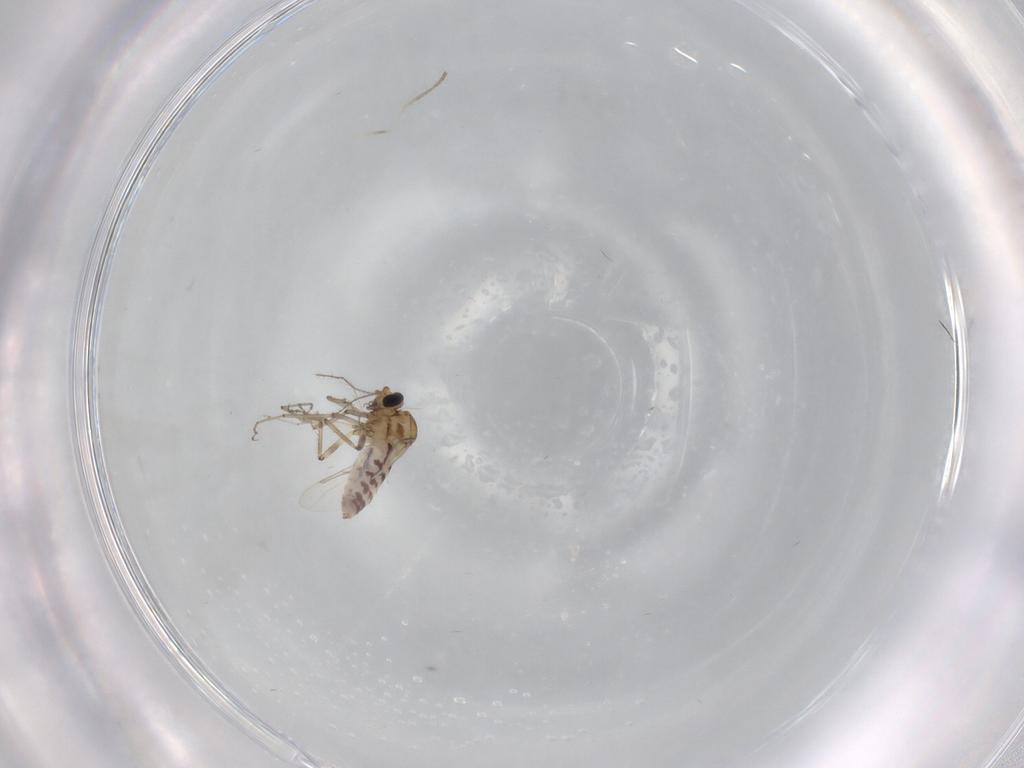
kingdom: Animalia
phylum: Arthropoda
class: Insecta
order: Diptera
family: Ceratopogonidae
